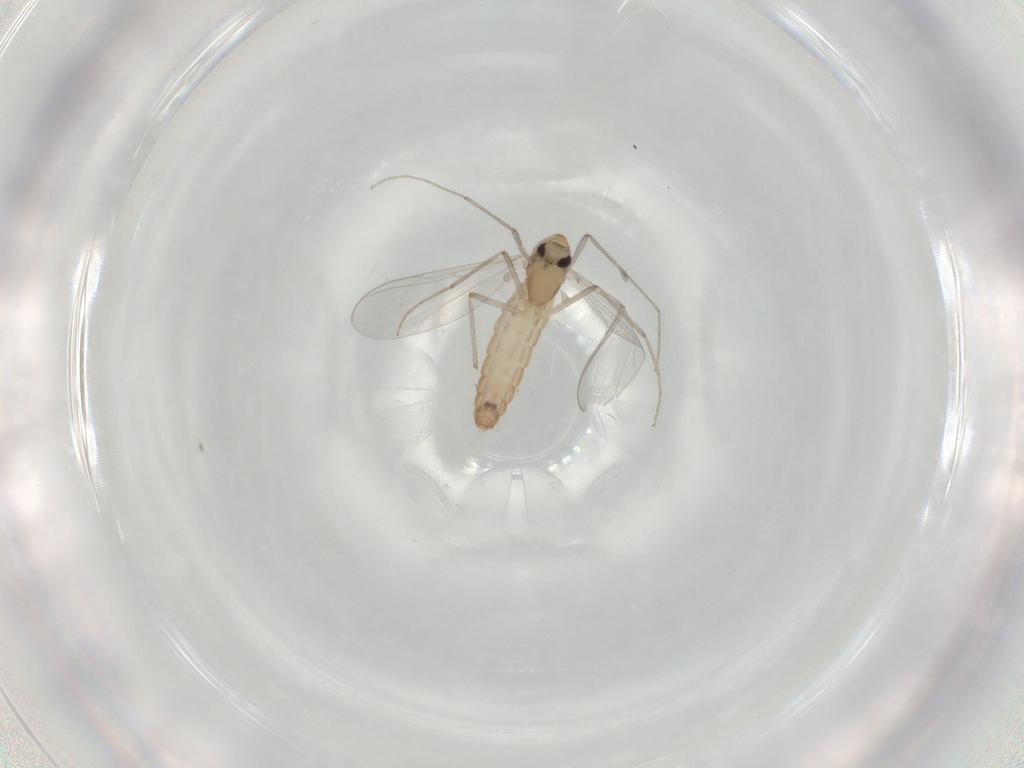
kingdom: Animalia
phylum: Arthropoda
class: Insecta
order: Diptera
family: Chironomidae
